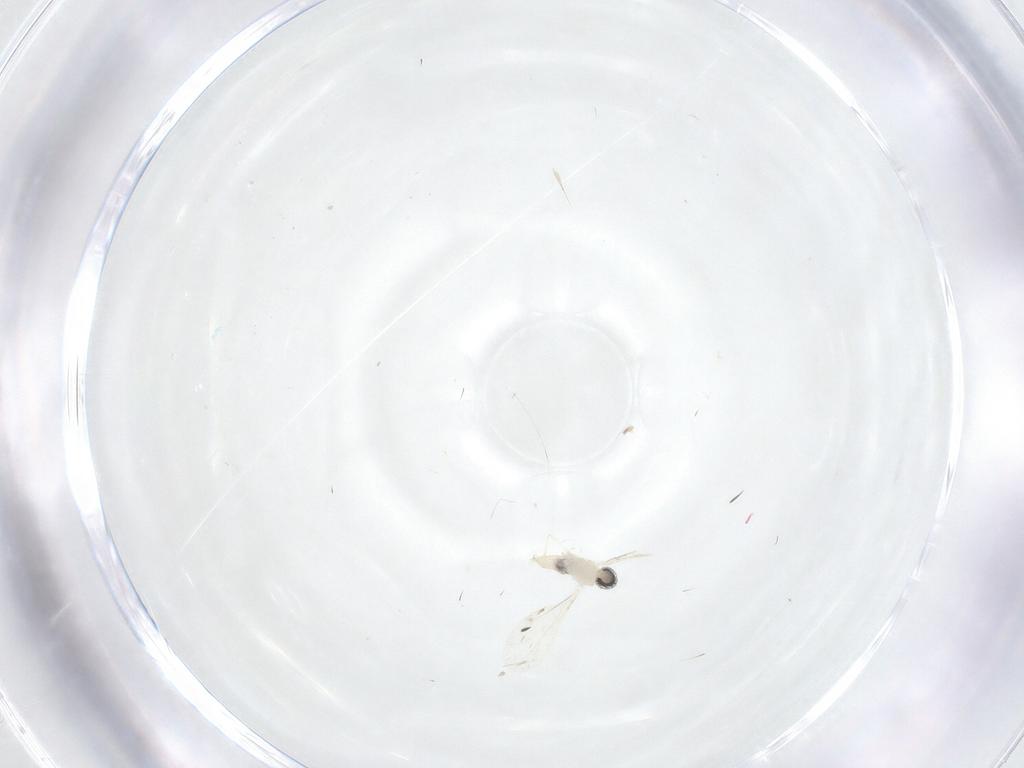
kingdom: Animalia
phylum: Arthropoda
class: Insecta
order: Diptera
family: Cecidomyiidae
